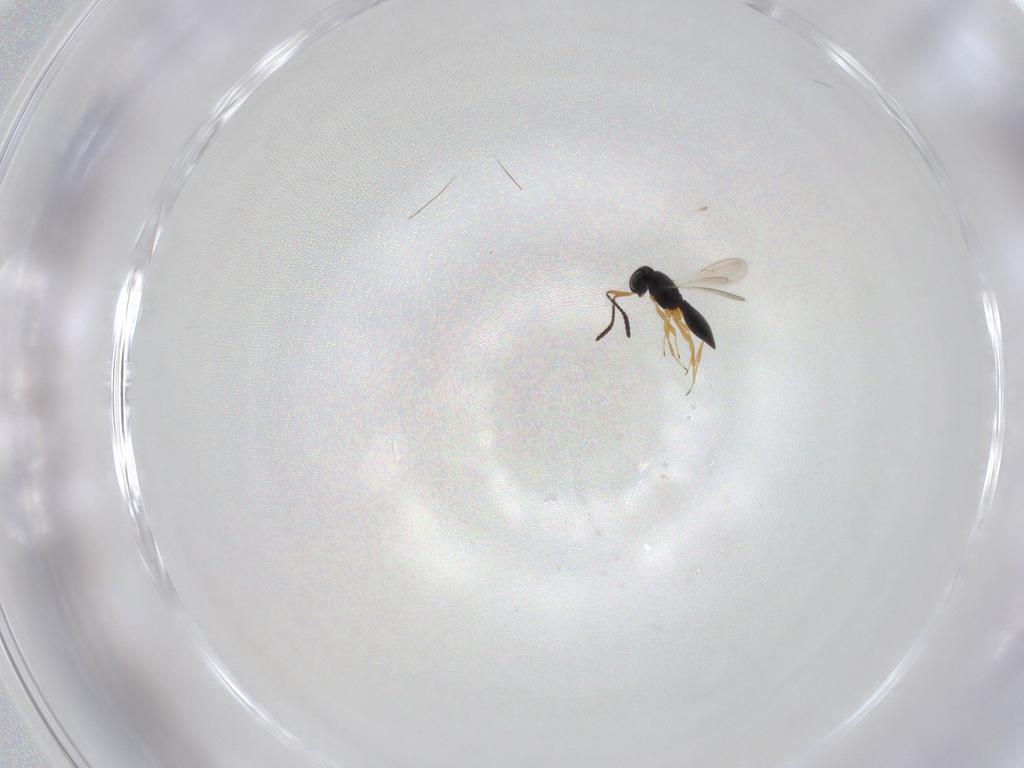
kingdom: Animalia
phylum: Arthropoda
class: Insecta
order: Hymenoptera
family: Scelionidae
